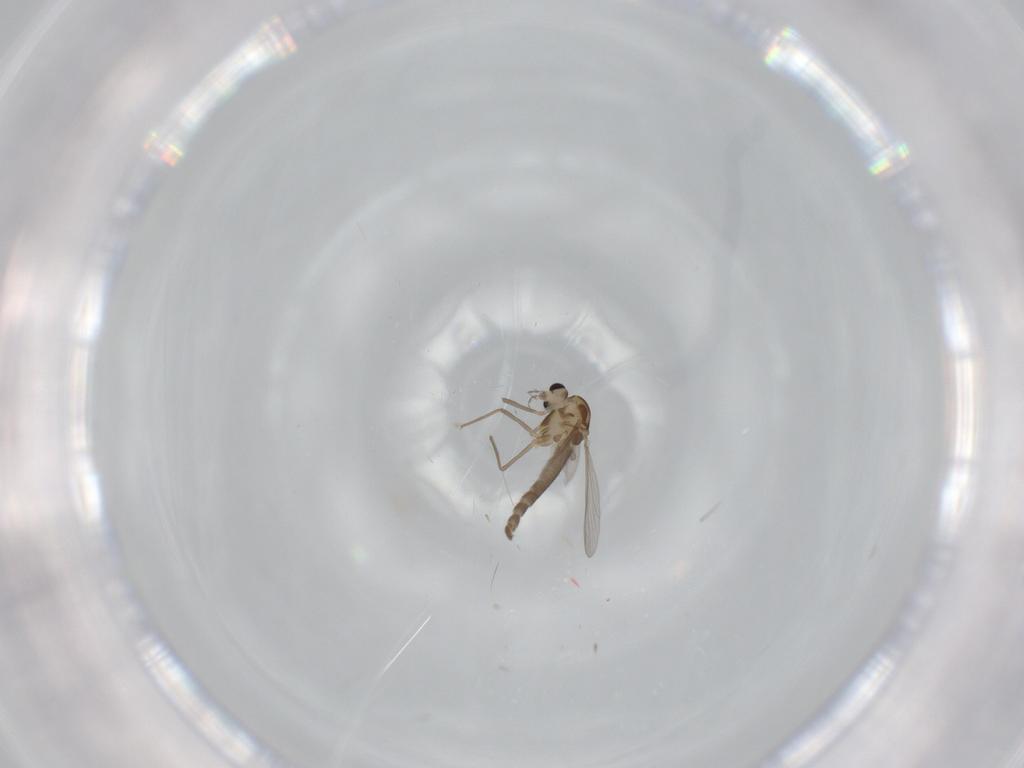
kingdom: Animalia
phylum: Arthropoda
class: Insecta
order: Diptera
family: Chironomidae
